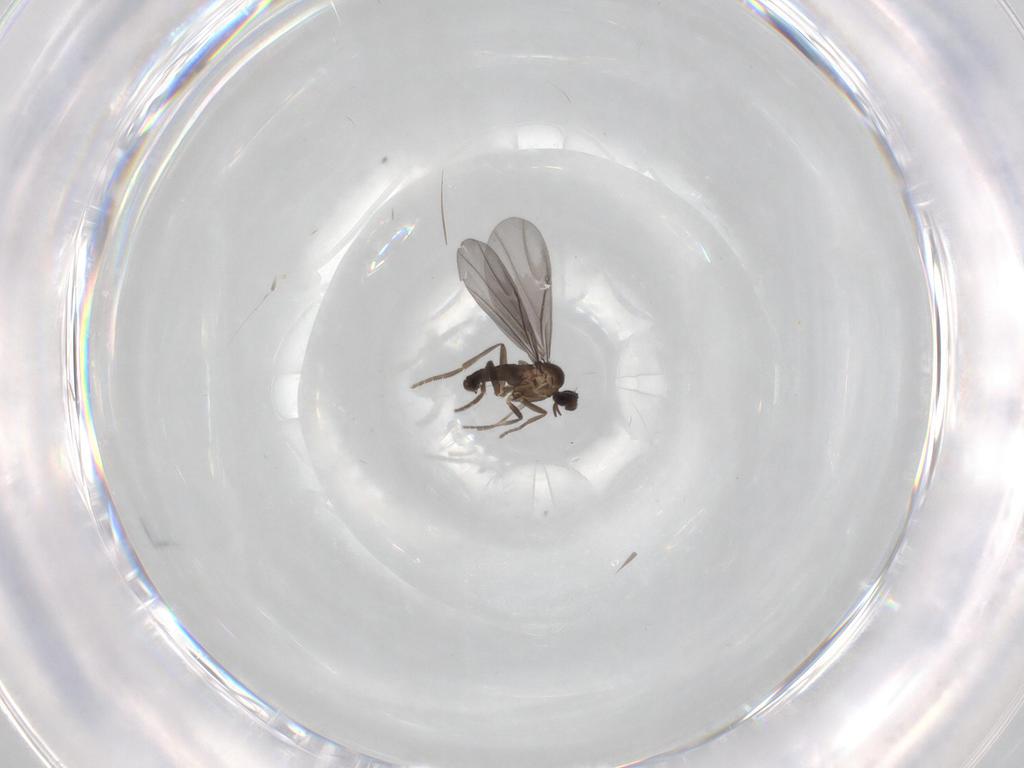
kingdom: Animalia
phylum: Arthropoda
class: Insecta
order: Diptera
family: Phoridae
